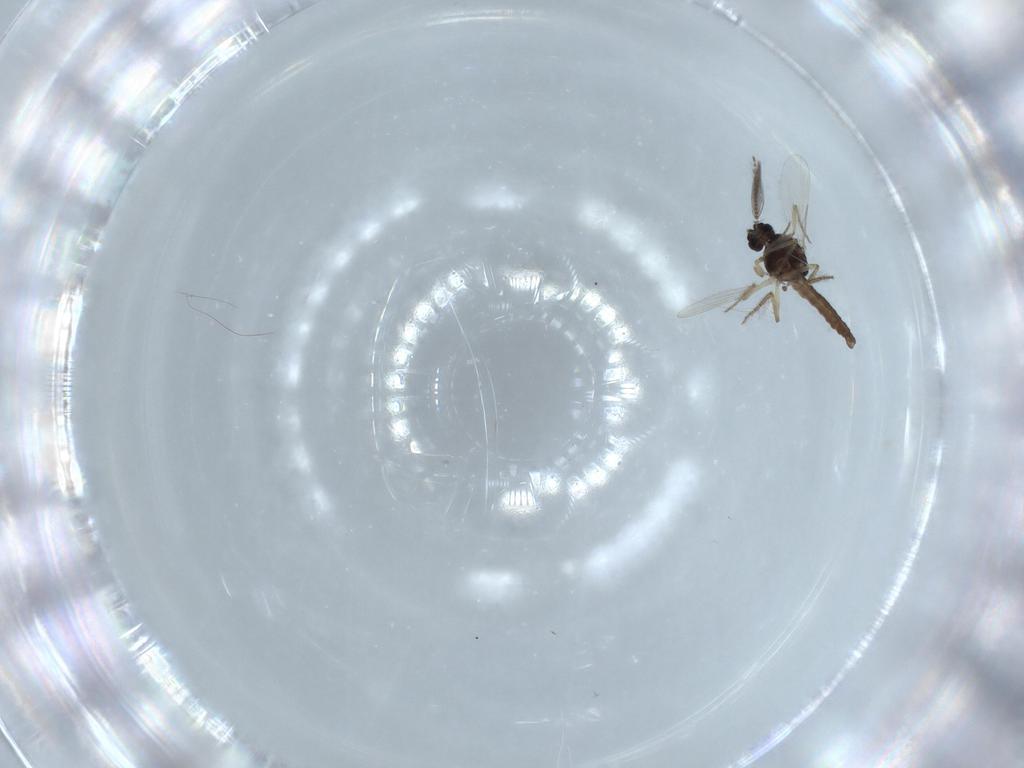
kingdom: Animalia
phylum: Arthropoda
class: Insecta
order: Diptera
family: Ceratopogonidae
